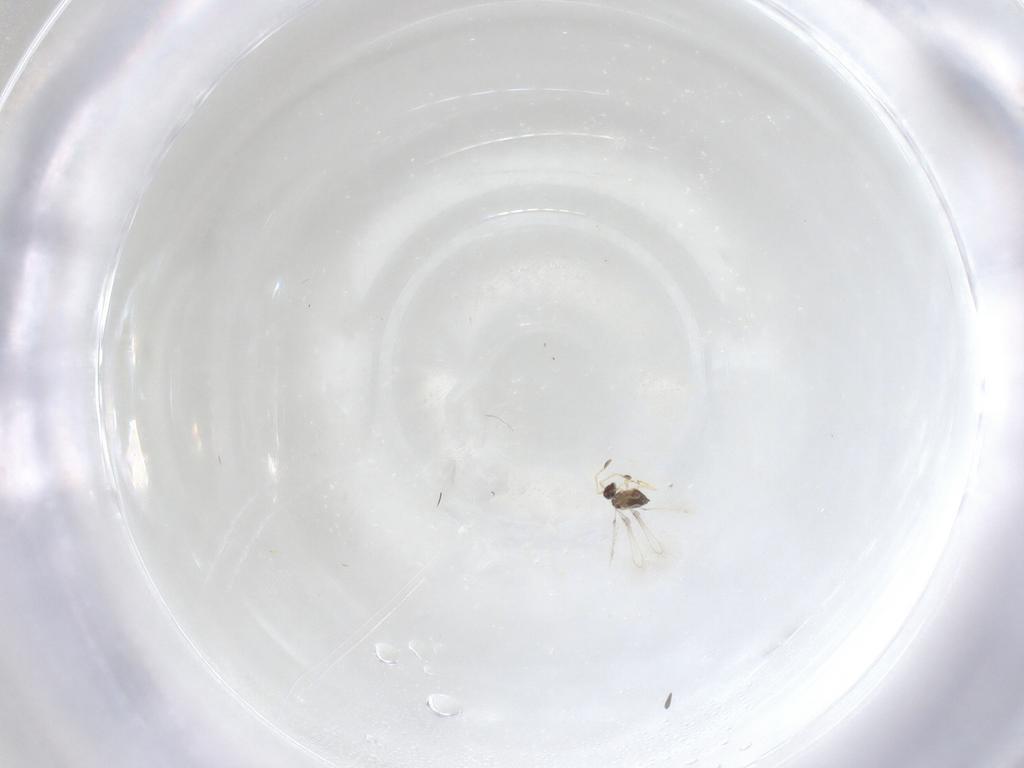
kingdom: Animalia
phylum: Arthropoda
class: Insecta
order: Hymenoptera
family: Mymaridae
